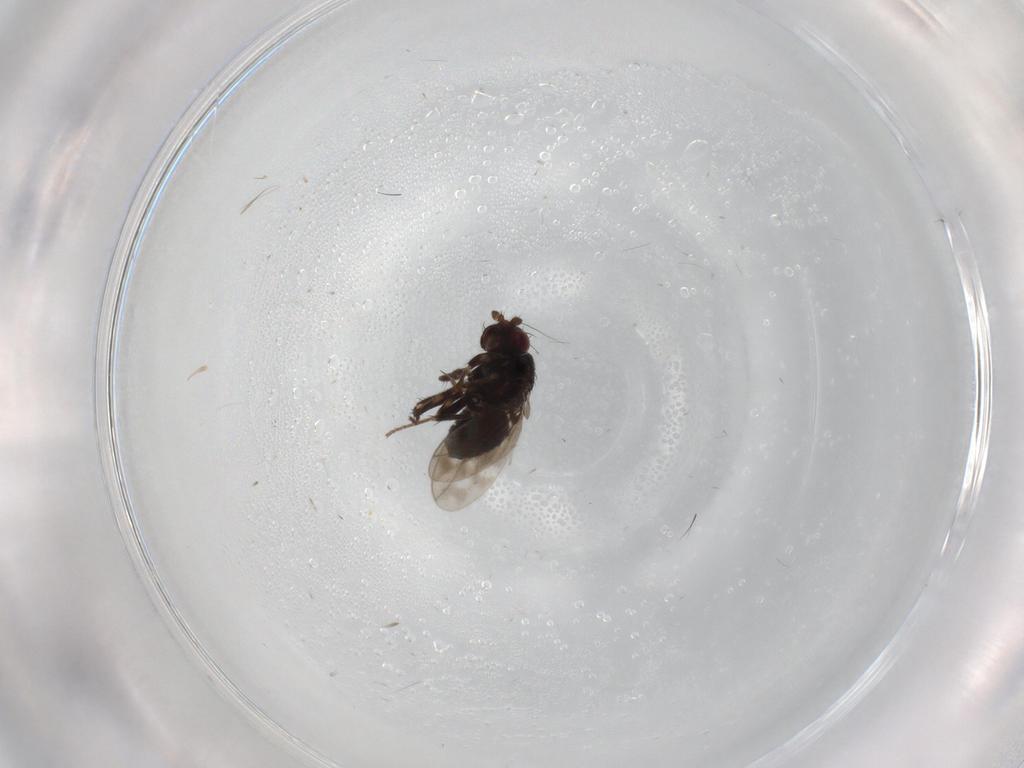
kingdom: Animalia
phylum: Arthropoda
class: Insecta
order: Diptera
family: Sphaeroceridae
